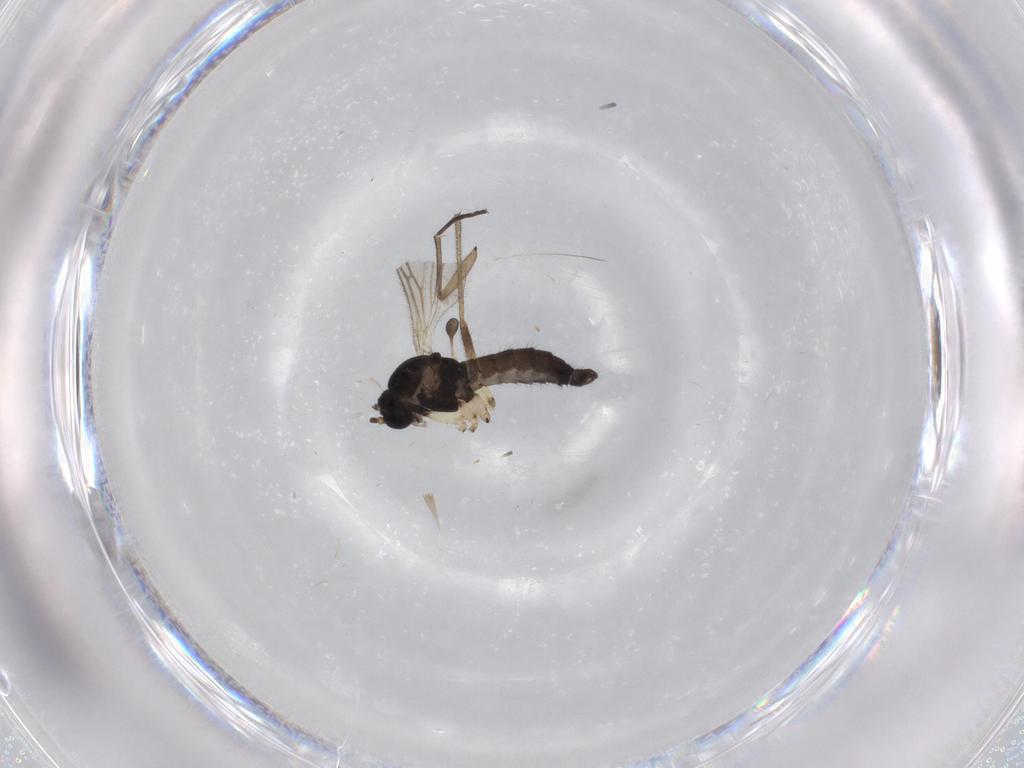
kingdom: Animalia
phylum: Arthropoda
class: Insecta
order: Diptera
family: Sciaridae
